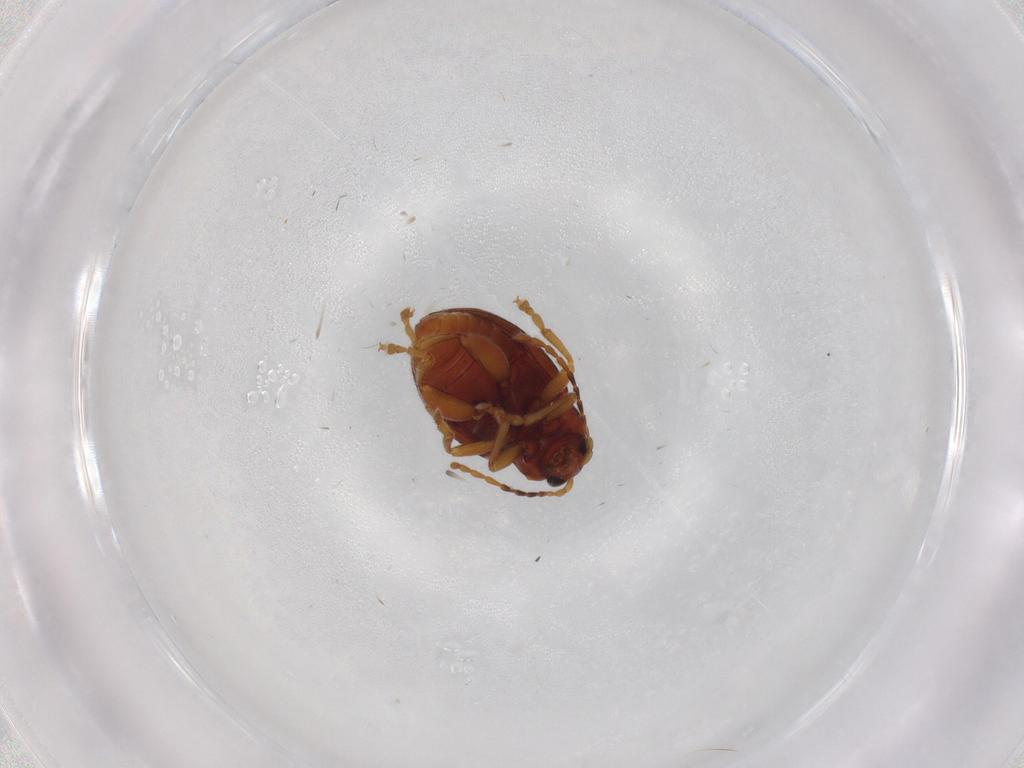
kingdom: Animalia
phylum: Arthropoda
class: Insecta
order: Coleoptera
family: Chrysomelidae
